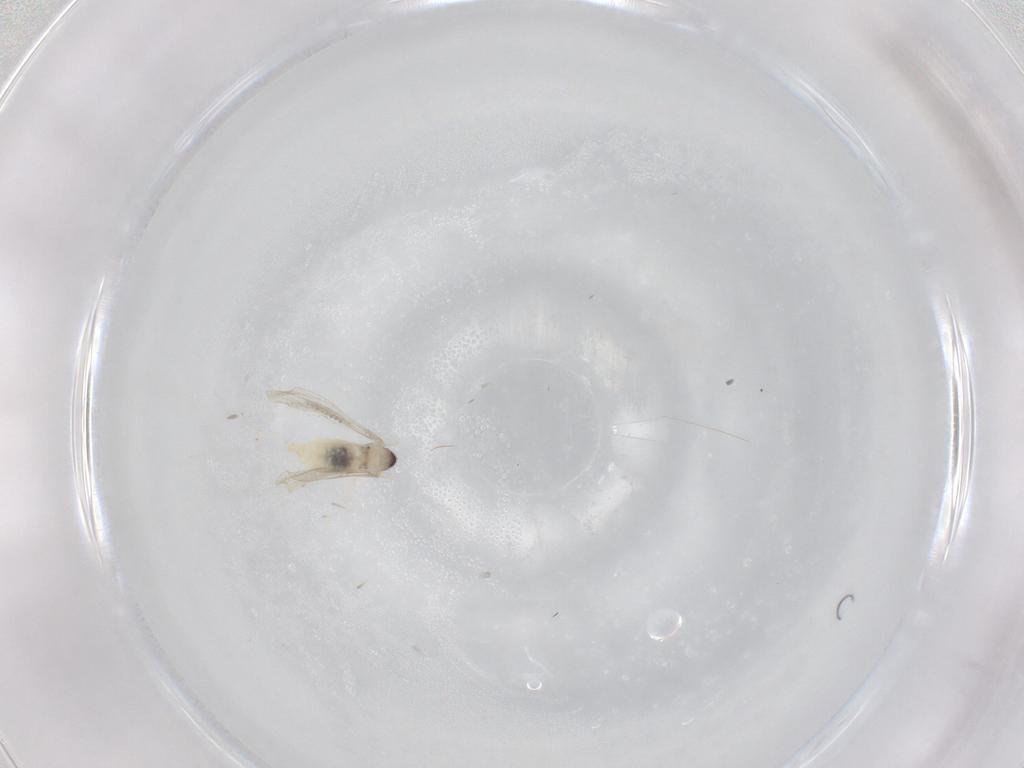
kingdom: Animalia
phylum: Arthropoda
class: Insecta
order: Diptera
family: Cecidomyiidae
